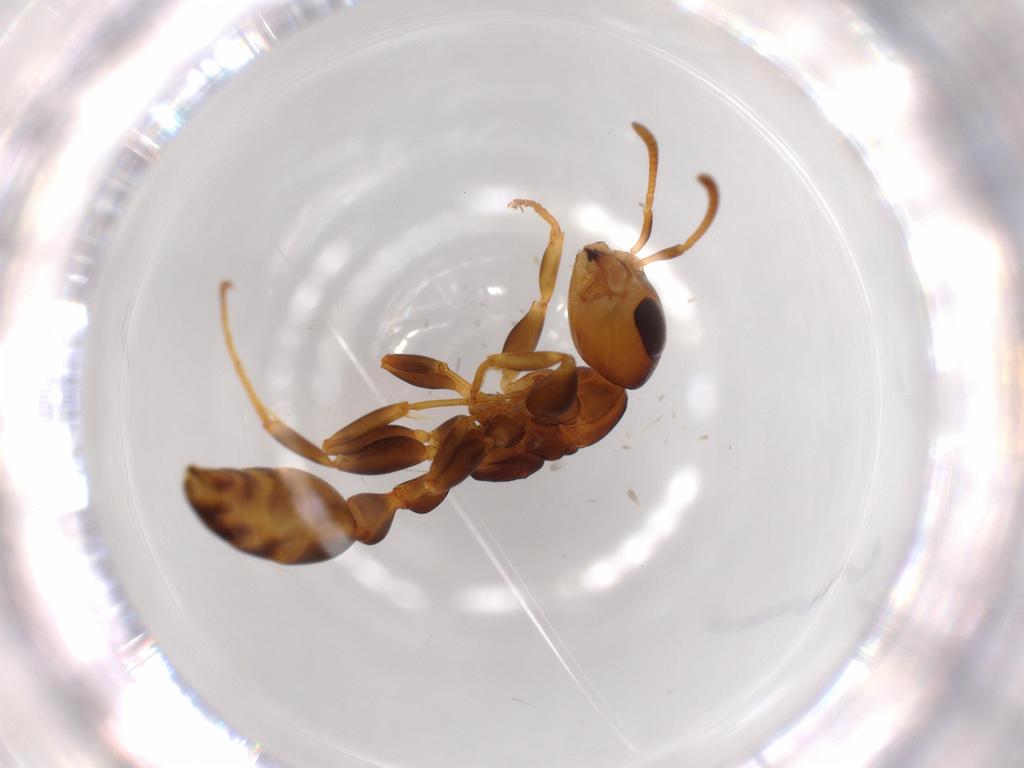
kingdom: Animalia
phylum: Arthropoda
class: Insecta
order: Hymenoptera
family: Formicidae
